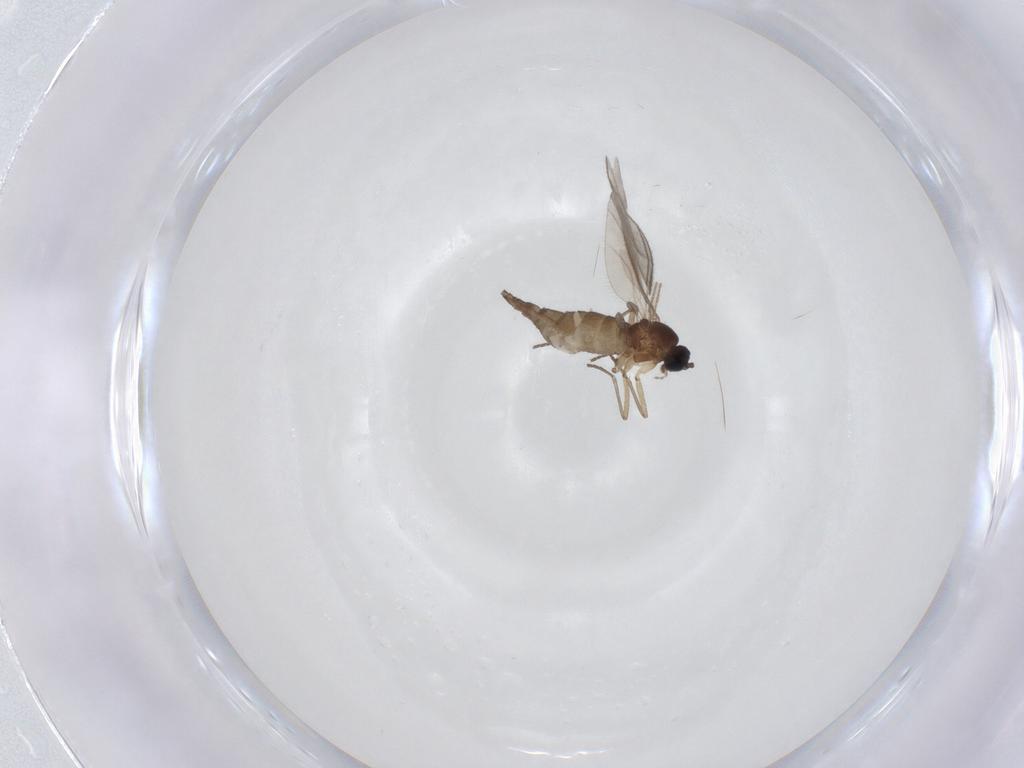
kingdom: Animalia
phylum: Arthropoda
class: Insecta
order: Diptera
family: Sciaridae
